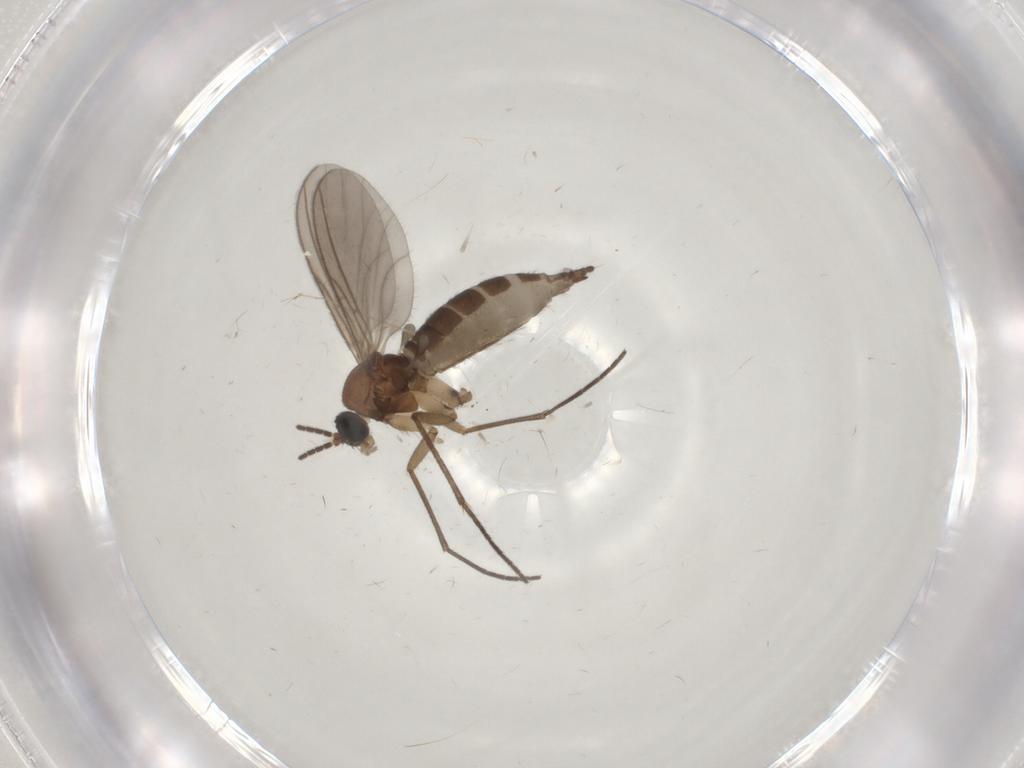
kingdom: Animalia
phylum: Arthropoda
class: Insecta
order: Diptera
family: Sciaridae
